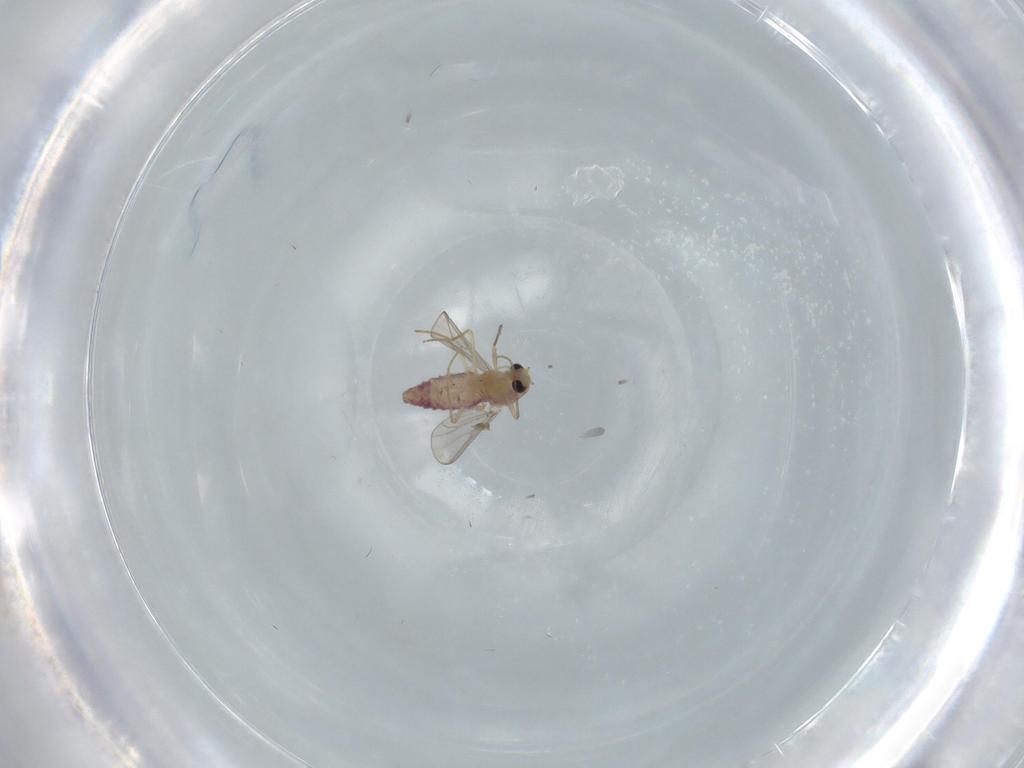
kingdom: Animalia
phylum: Arthropoda
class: Insecta
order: Diptera
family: Chironomidae
